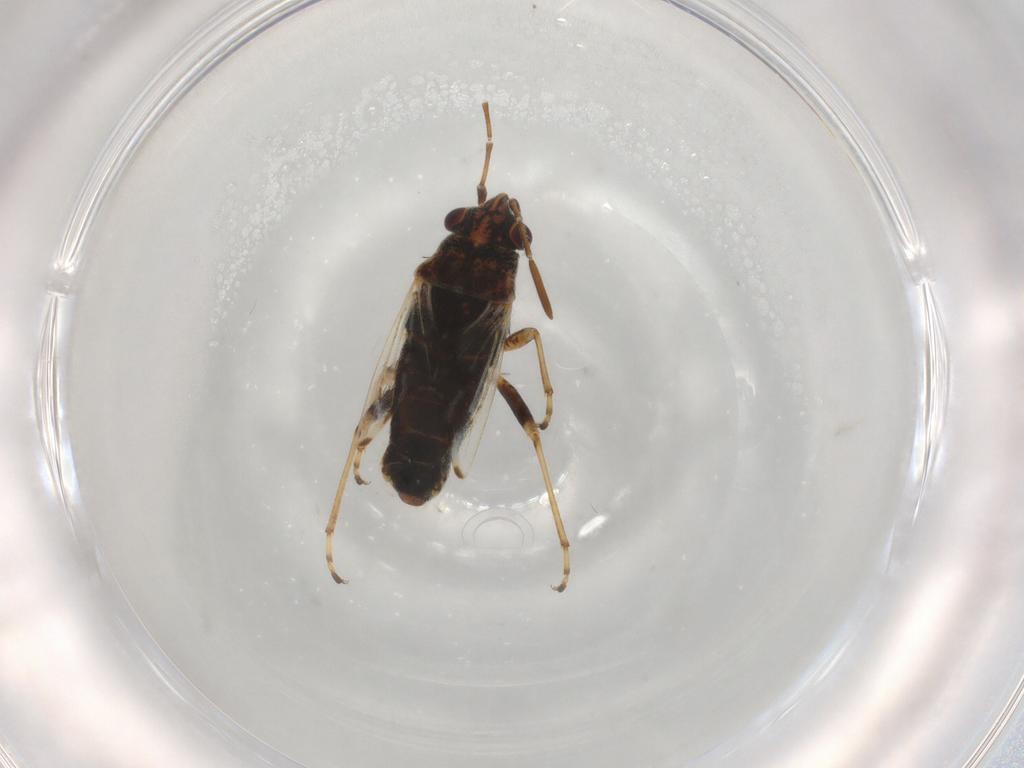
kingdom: Animalia
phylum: Arthropoda
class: Insecta
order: Hemiptera
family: Lygaeidae
